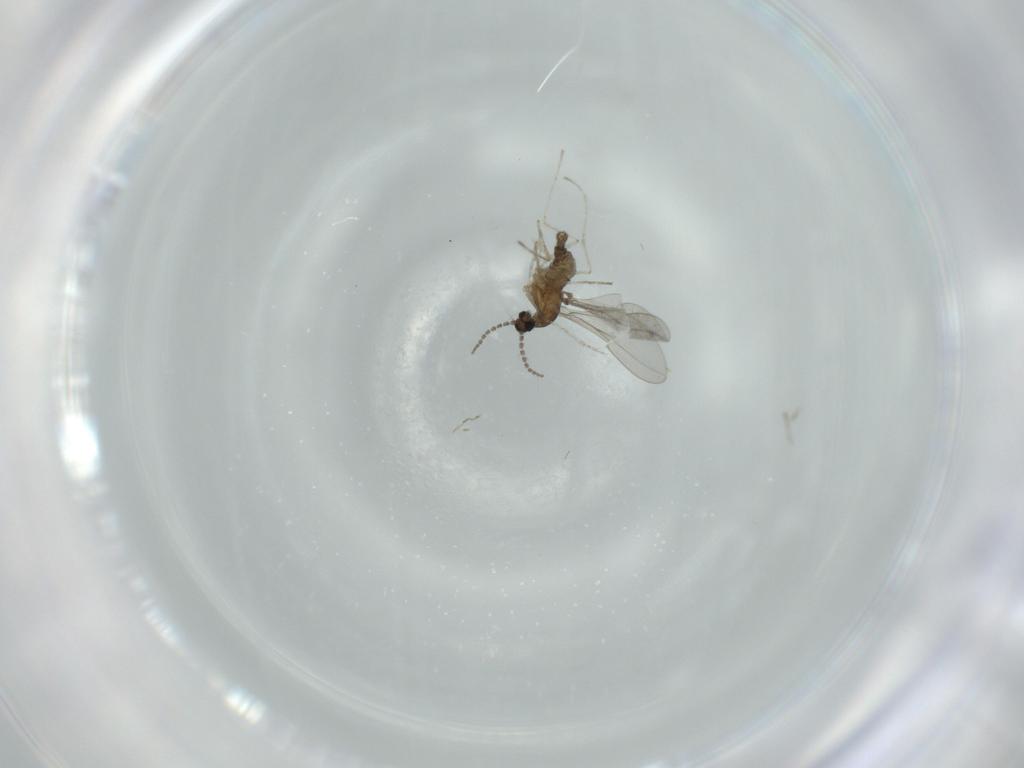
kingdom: Animalia
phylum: Arthropoda
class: Insecta
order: Diptera
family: Cecidomyiidae
